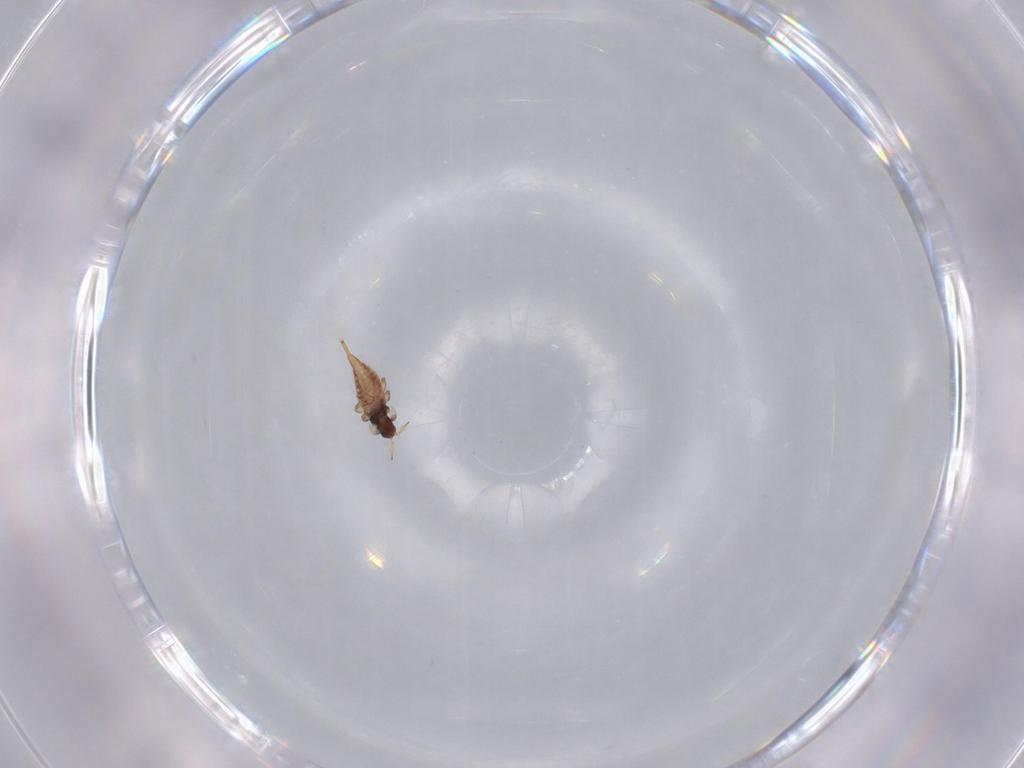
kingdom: Animalia
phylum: Arthropoda
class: Insecta
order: Thysanoptera
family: Phlaeothripidae
